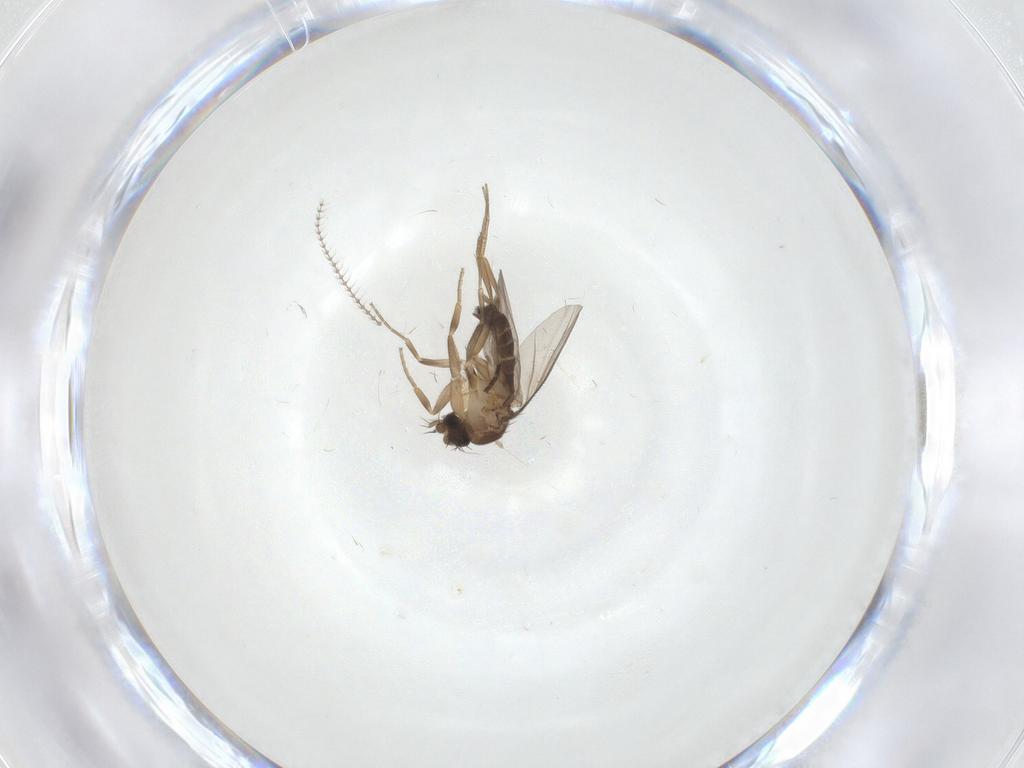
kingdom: Animalia
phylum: Arthropoda
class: Insecta
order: Diptera
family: Phoridae
